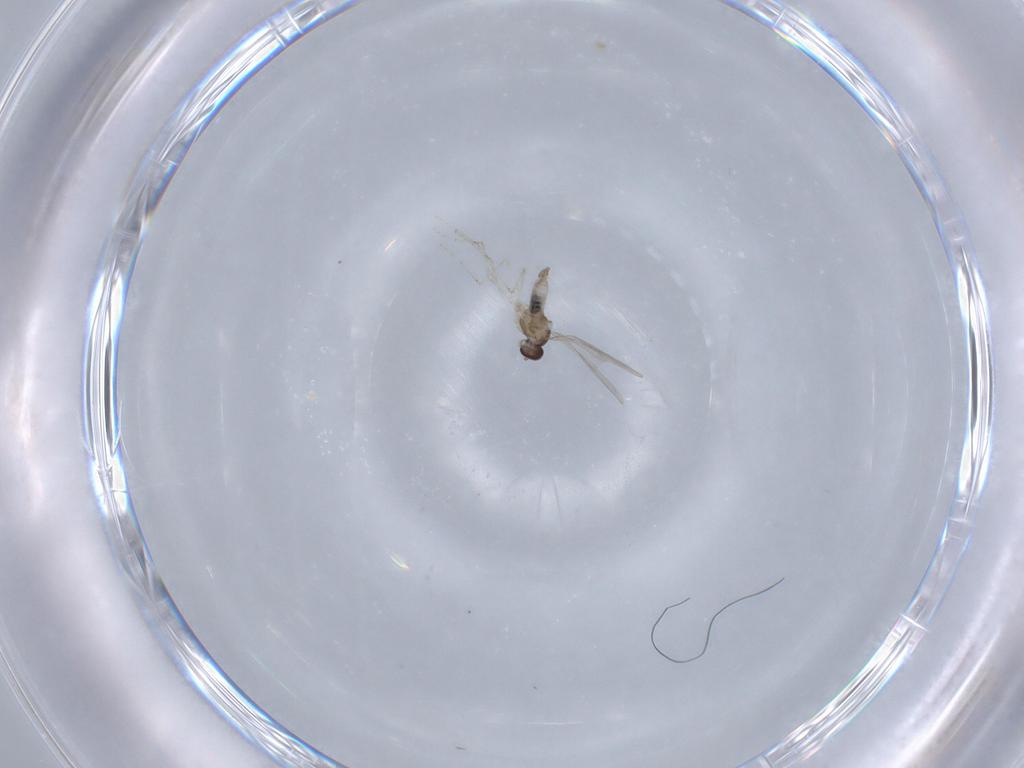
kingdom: Animalia
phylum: Arthropoda
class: Insecta
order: Diptera
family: Cecidomyiidae
